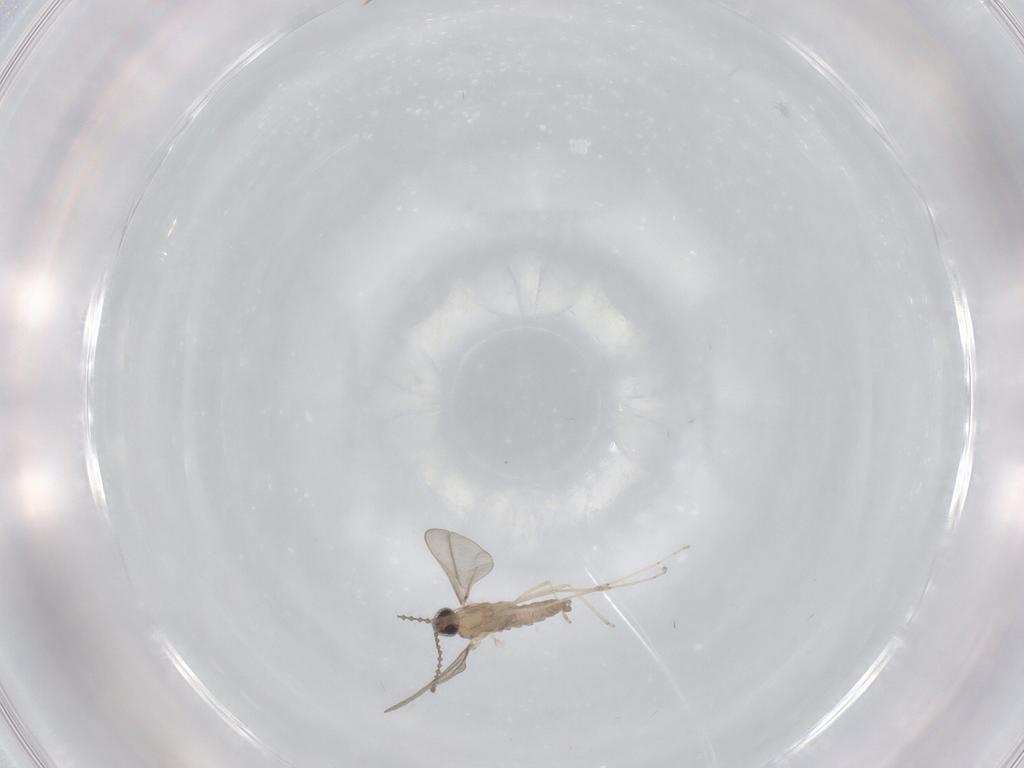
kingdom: Animalia
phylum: Arthropoda
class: Insecta
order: Diptera
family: Cecidomyiidae
